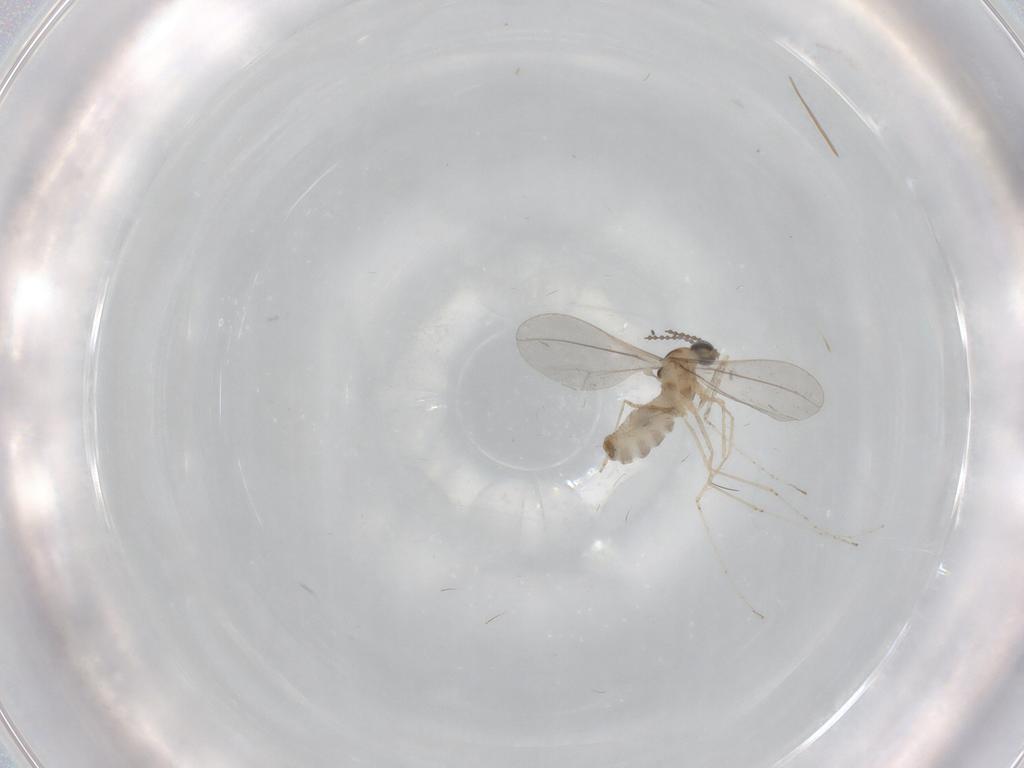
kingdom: Animalia
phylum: Arthropoda
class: Insecta
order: Diptera
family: Cecidomyiidae
